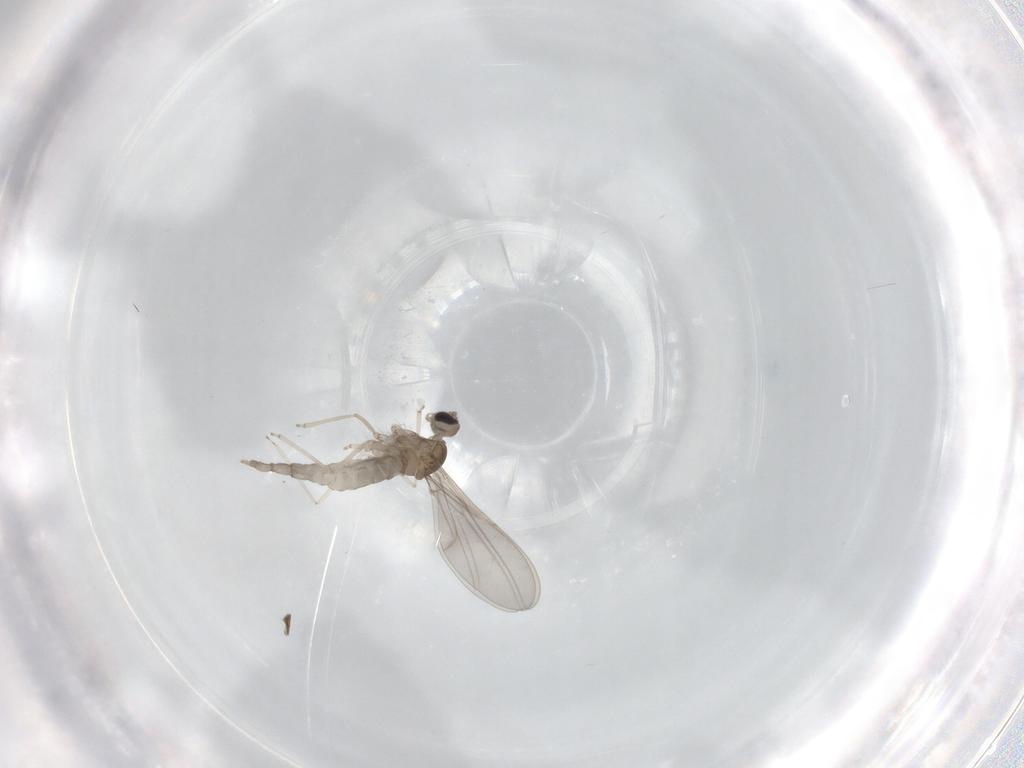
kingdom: Animalia
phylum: Arthropoda
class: Insecta
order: Diptera
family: Cecidomyiidae
